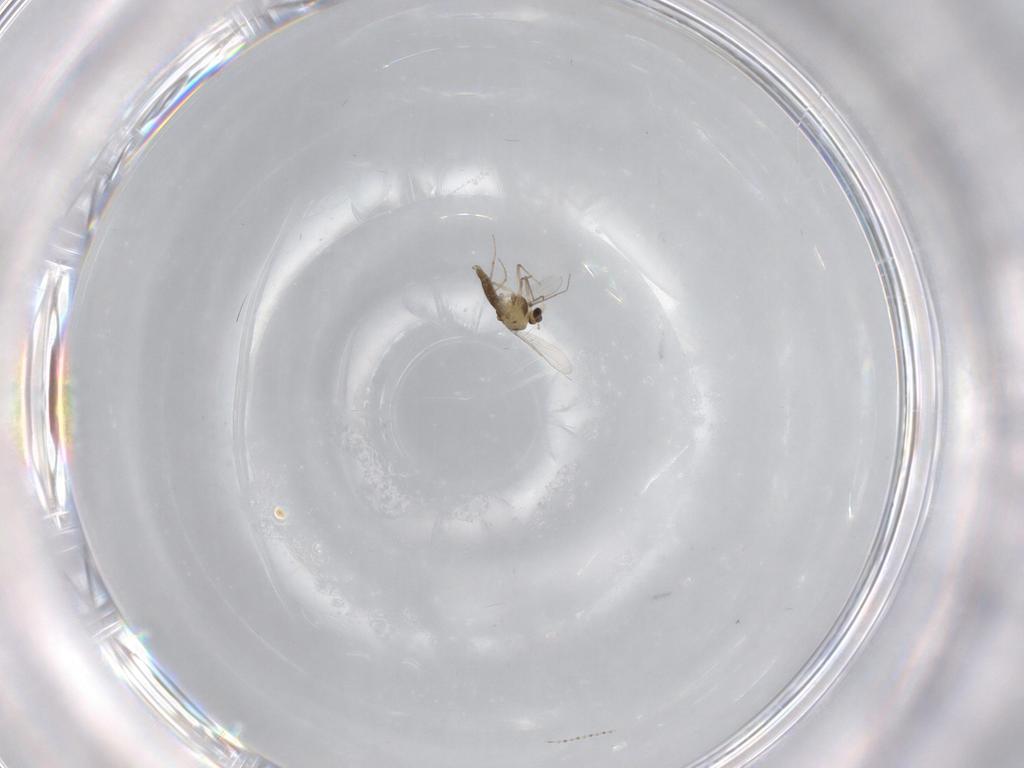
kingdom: Animalia
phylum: Arthropoda
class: Insecta
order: Diptera
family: Chironomidae
